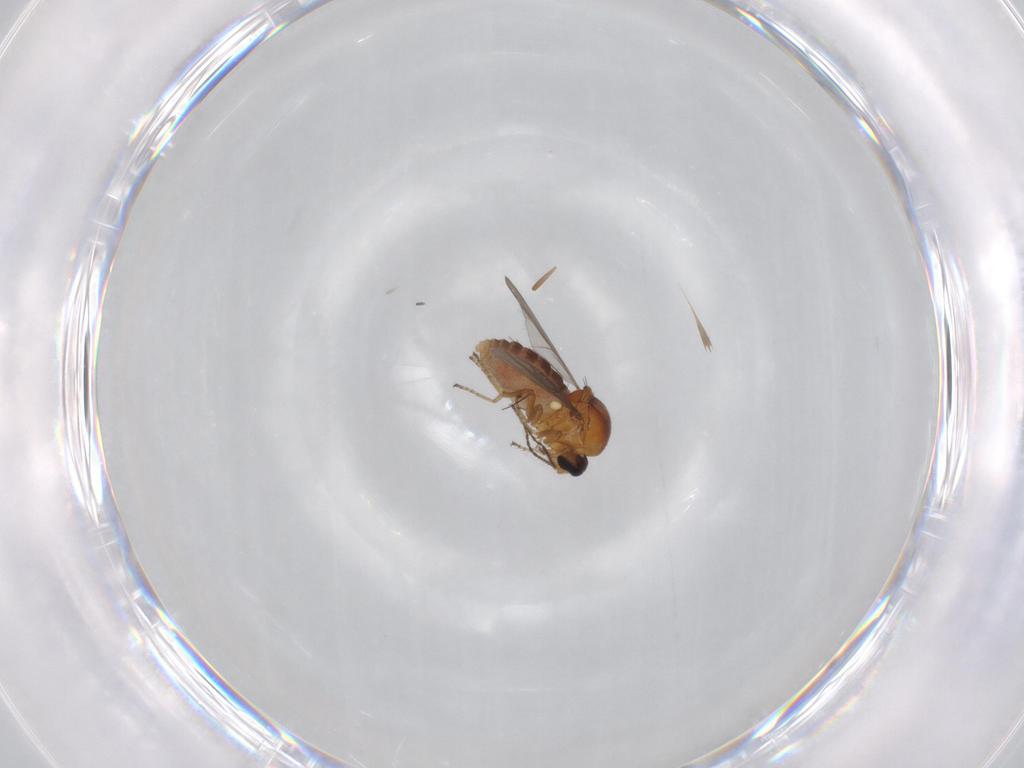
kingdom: Animalia
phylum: Arthropoda
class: Insecta
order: Diptera
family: Ceratopogonidae
